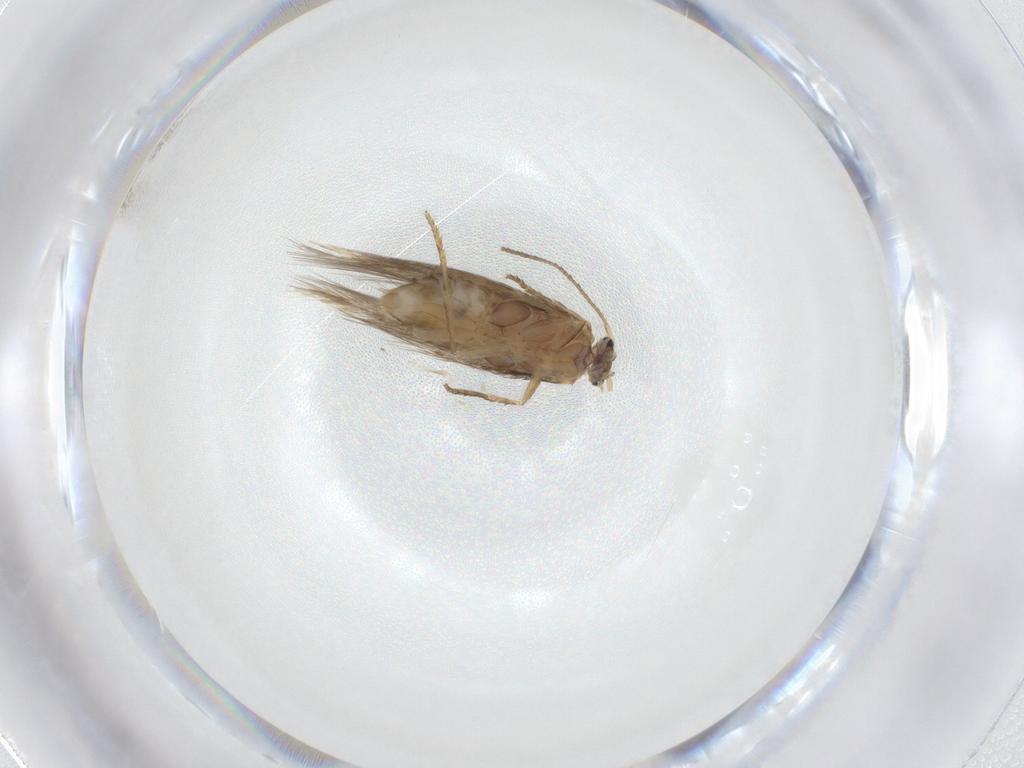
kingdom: Animalia
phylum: Arthropoda
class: Insecta
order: Lepidoptera
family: Nepticulidae
